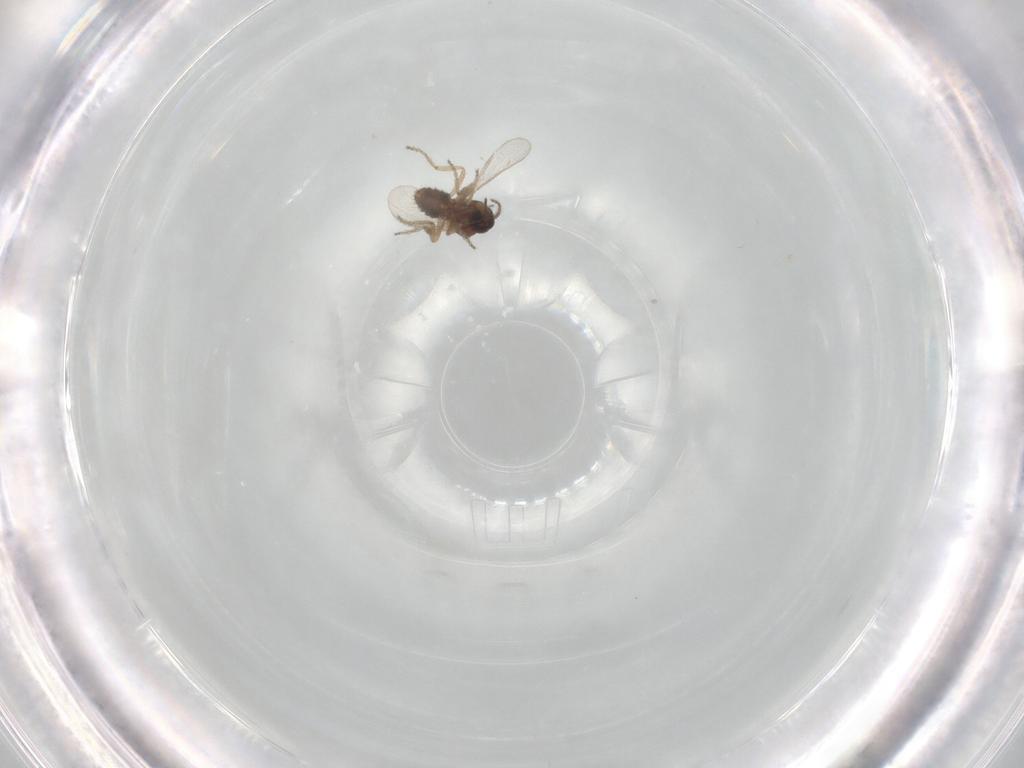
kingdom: Animalia
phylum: Arthropoda
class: Insecta
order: Diptera
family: Ceratopogonidae
